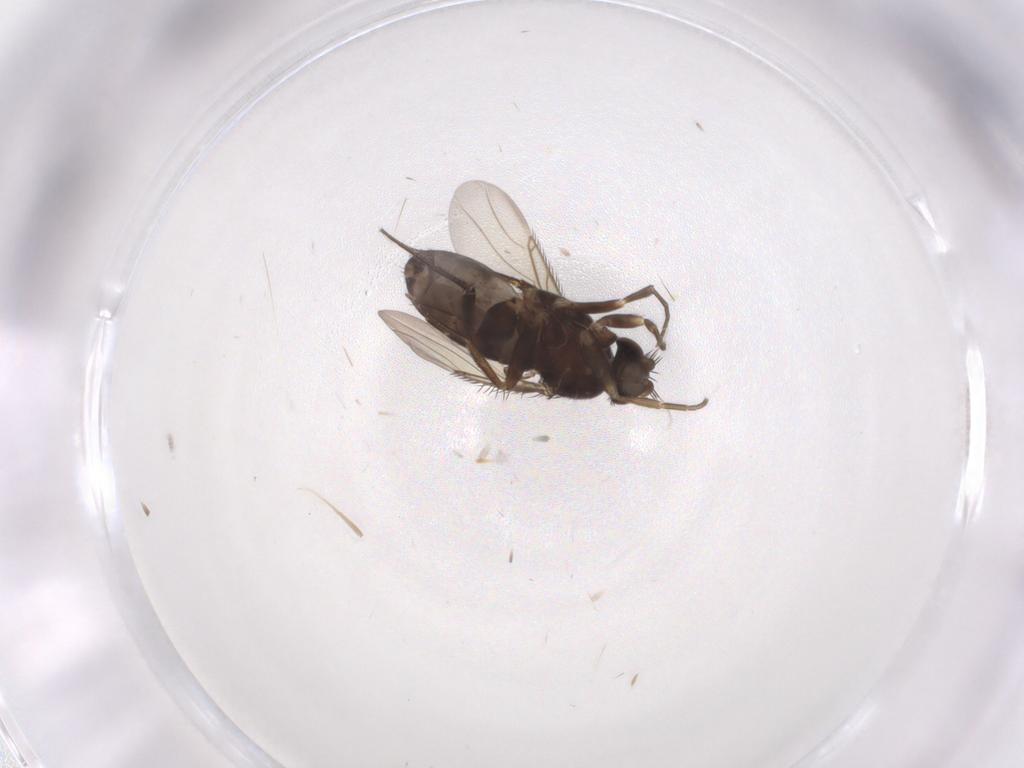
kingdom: Animalia
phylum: Arthropoda
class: Insecta
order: Diptera
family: Phoridae
